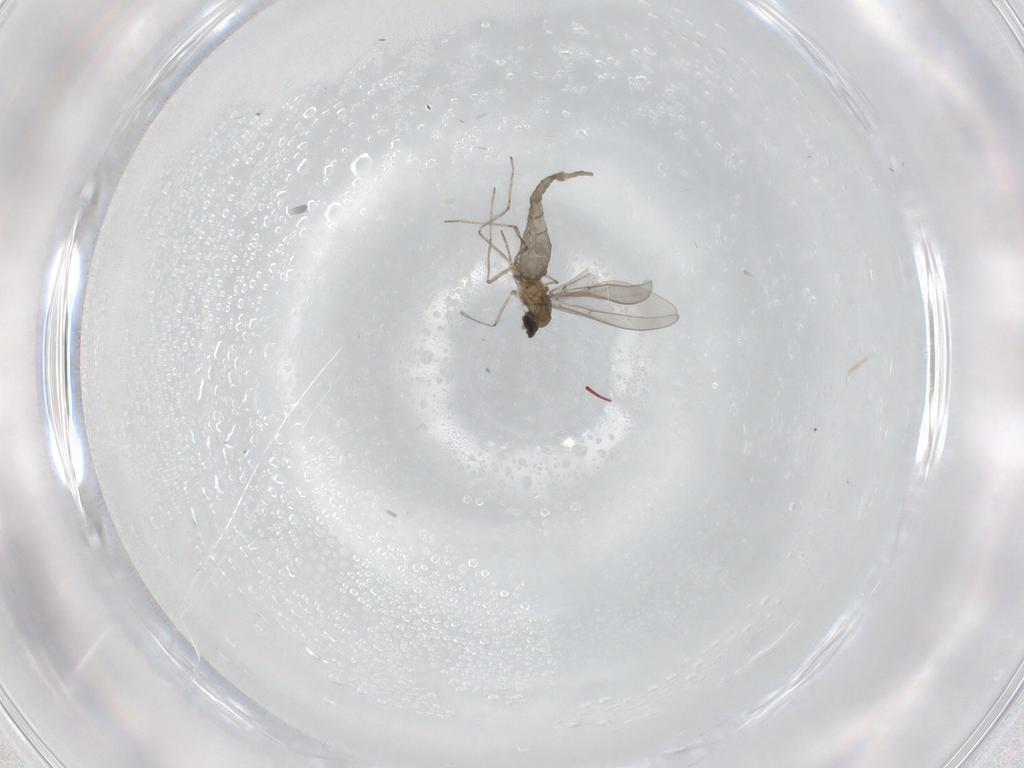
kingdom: Animalia
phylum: Arthropoda
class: Insecta
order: Diptera
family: Cecidomyiidae
